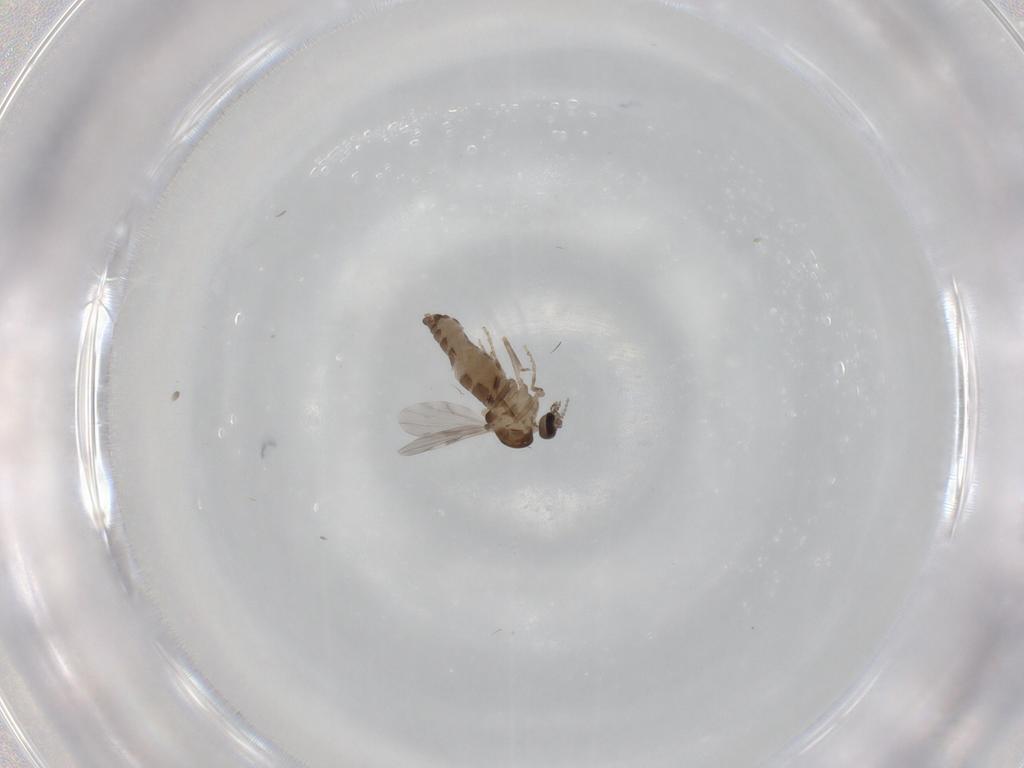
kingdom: Animalia
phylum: Arthropoda
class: Insecta
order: Diptera
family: Ceratopogonidae
